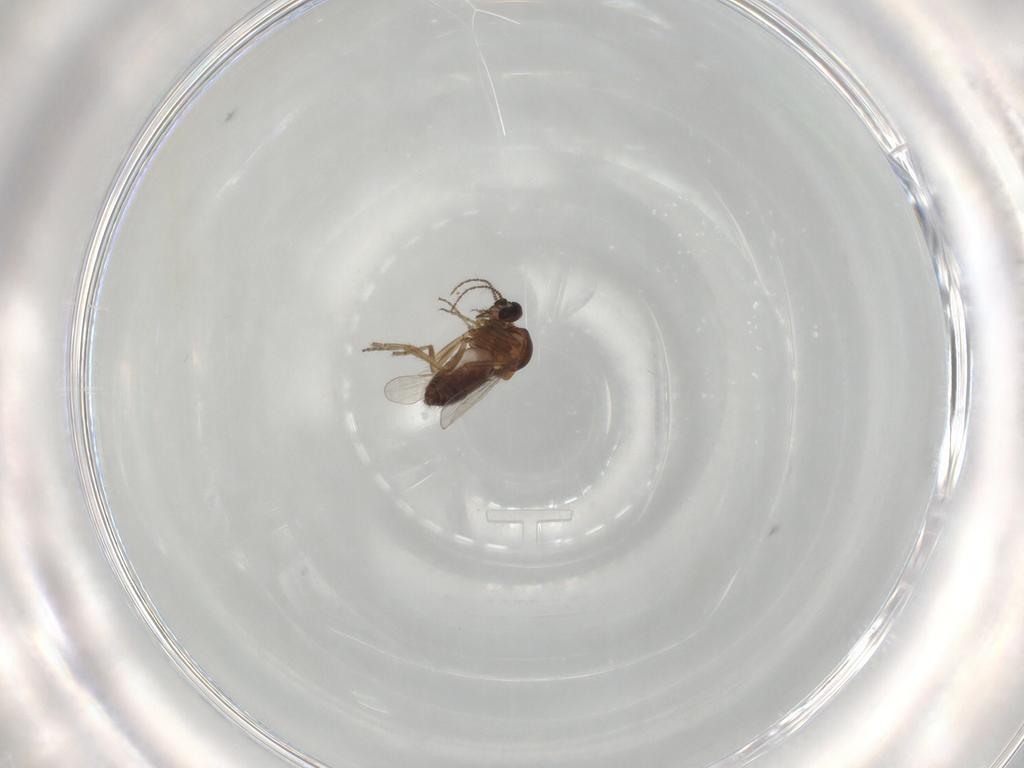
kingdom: Animalia
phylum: Arthropoda
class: Insecta
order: Diptera
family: Ceratopogonidae
